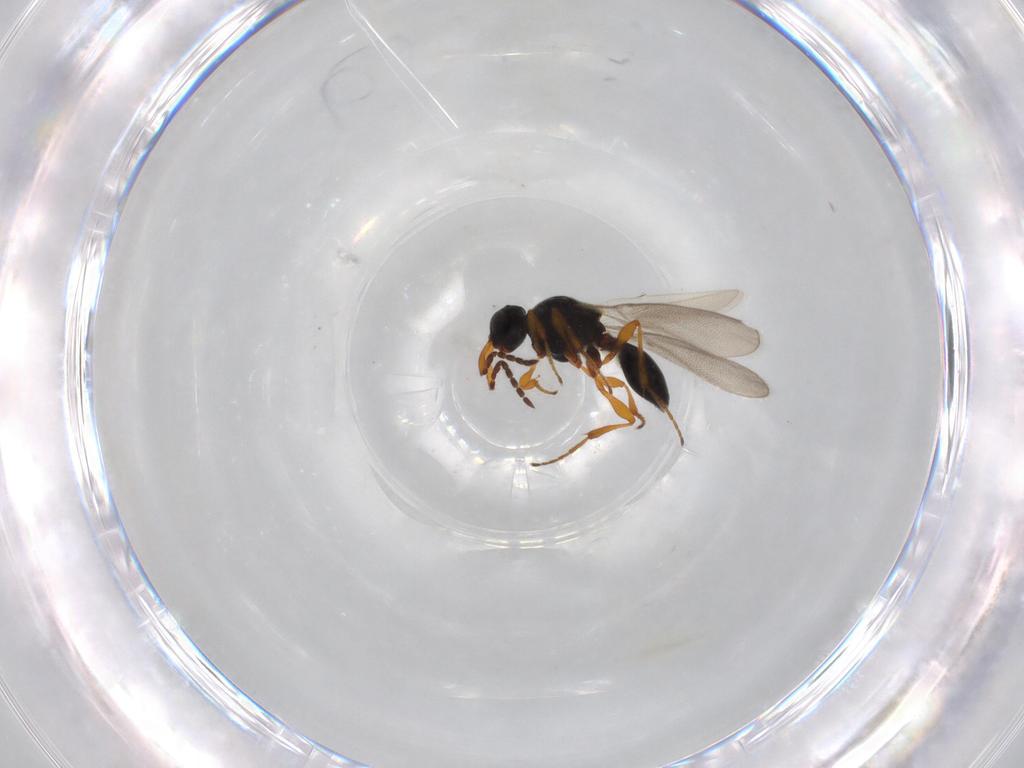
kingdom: Animalia
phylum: Arthropoda
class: Insecta
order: Hymenoptera
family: Platygastridae
